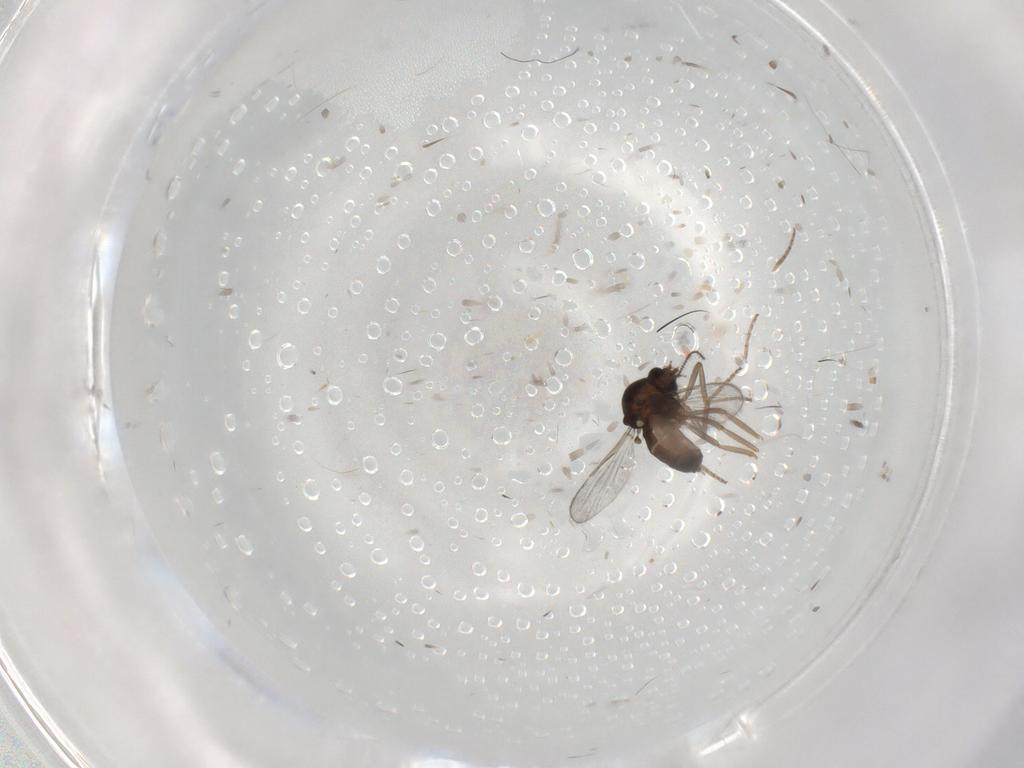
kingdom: Animalia
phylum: Arthropoda
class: Insecta
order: Diptera
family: Ceratopogonidae
